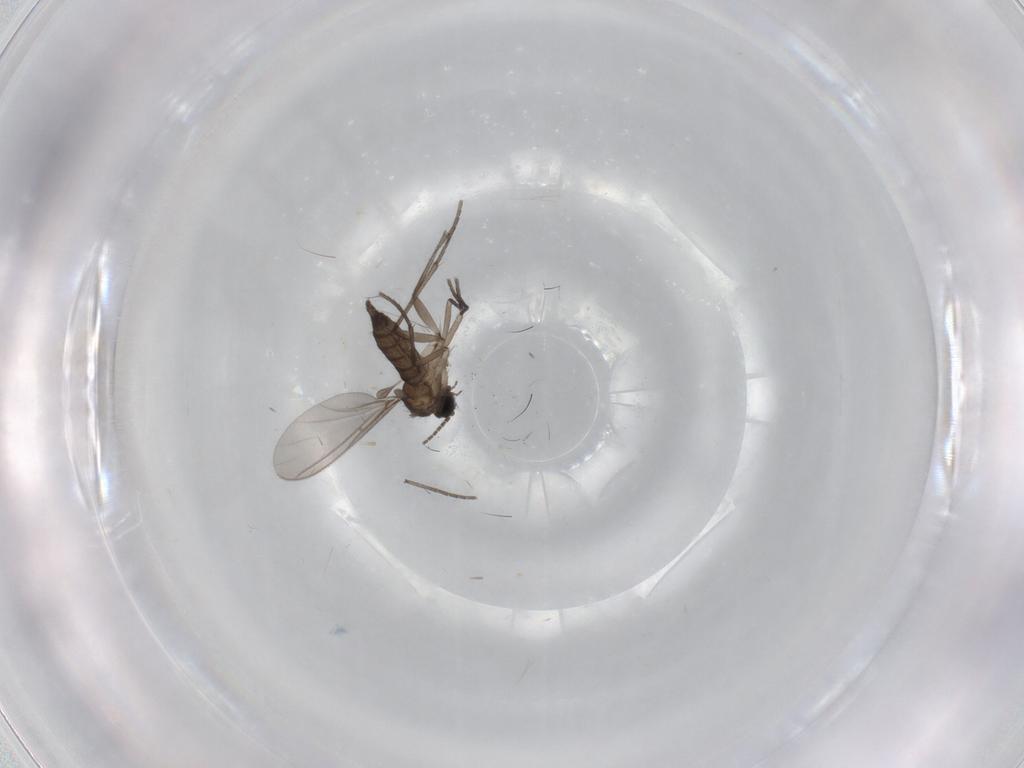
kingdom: Animalia
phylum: Arthropoda
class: Insecta
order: Diptera
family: Sciaridae
